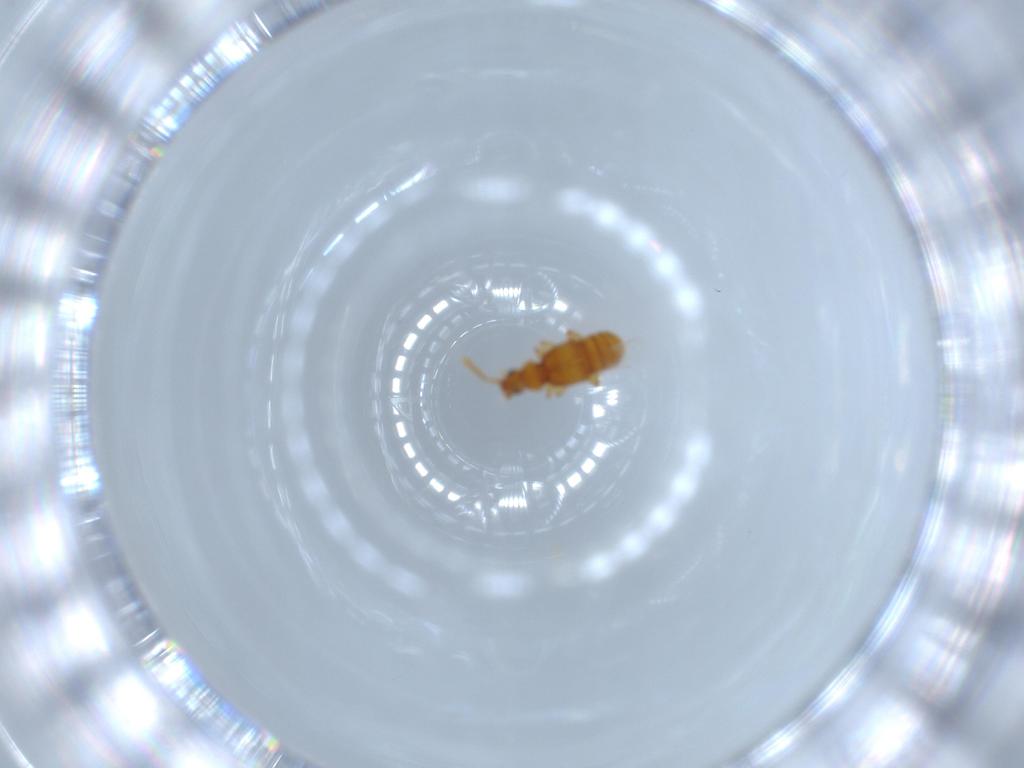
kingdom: Animalia
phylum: Arthropoda
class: Insecta
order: Coleoptera
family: Staphylinidae
